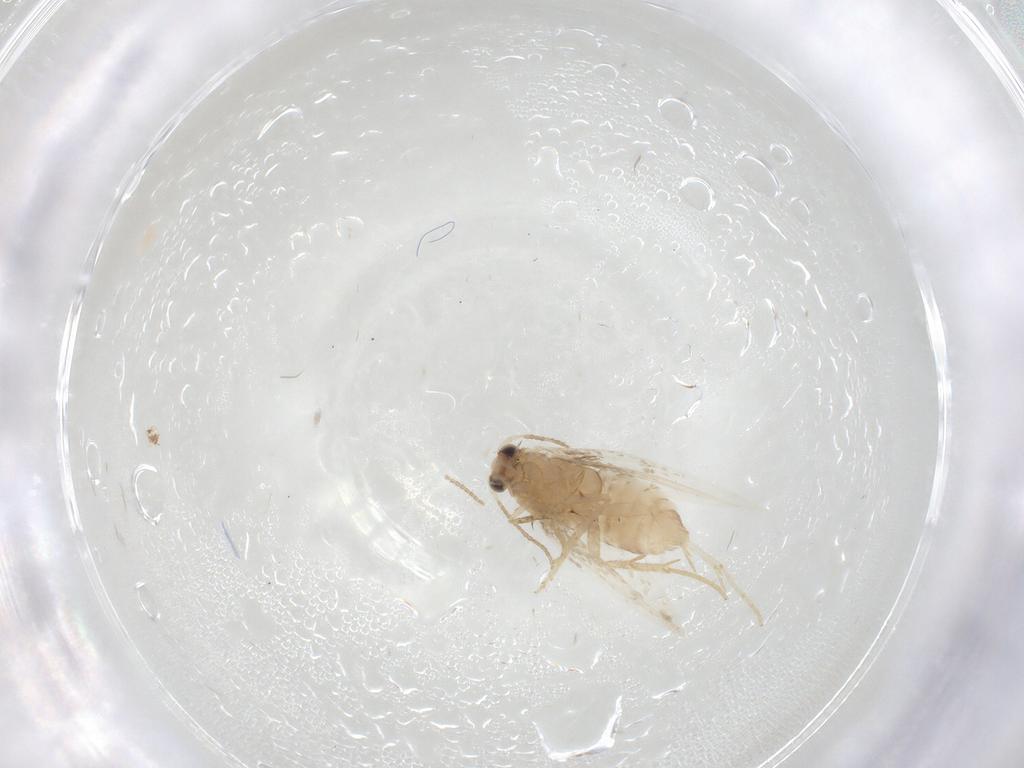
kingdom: Animalia
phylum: Arthropoda
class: Insecta
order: Lepidoptera
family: Nepticulidae
